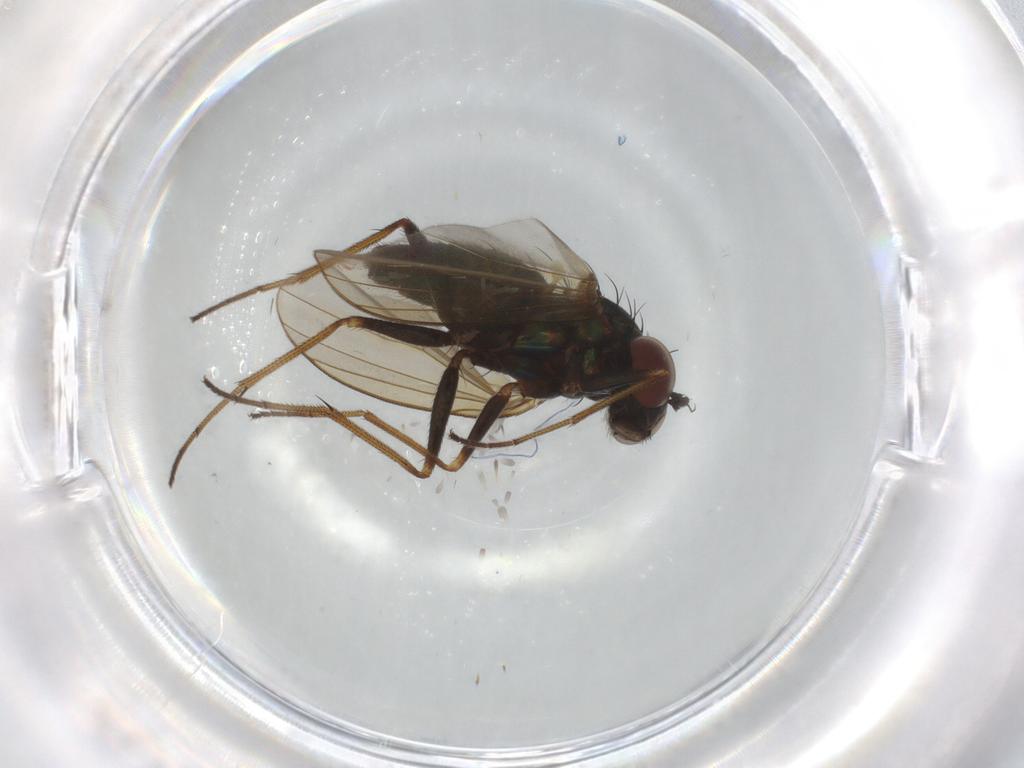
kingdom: Animalia
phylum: Arthropoda
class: Insecta
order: Diptera
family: Dolichopodidae
